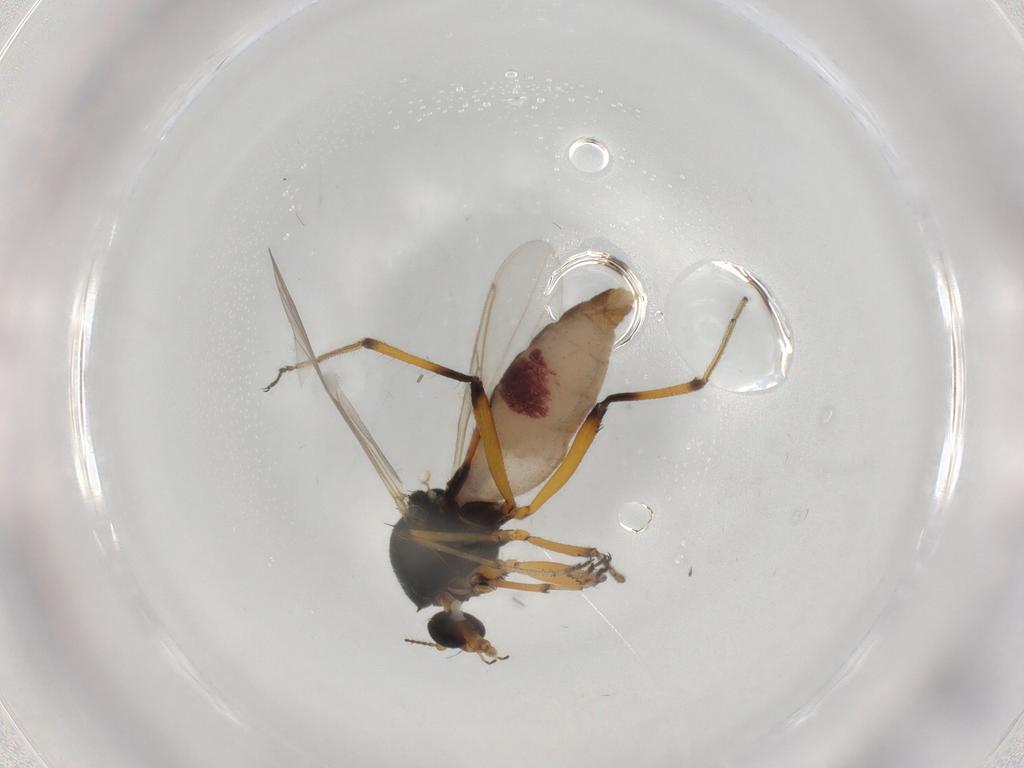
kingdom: Animalia
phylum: Arthropoda
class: Insecta
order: Diptera
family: Ceratopogonidae
